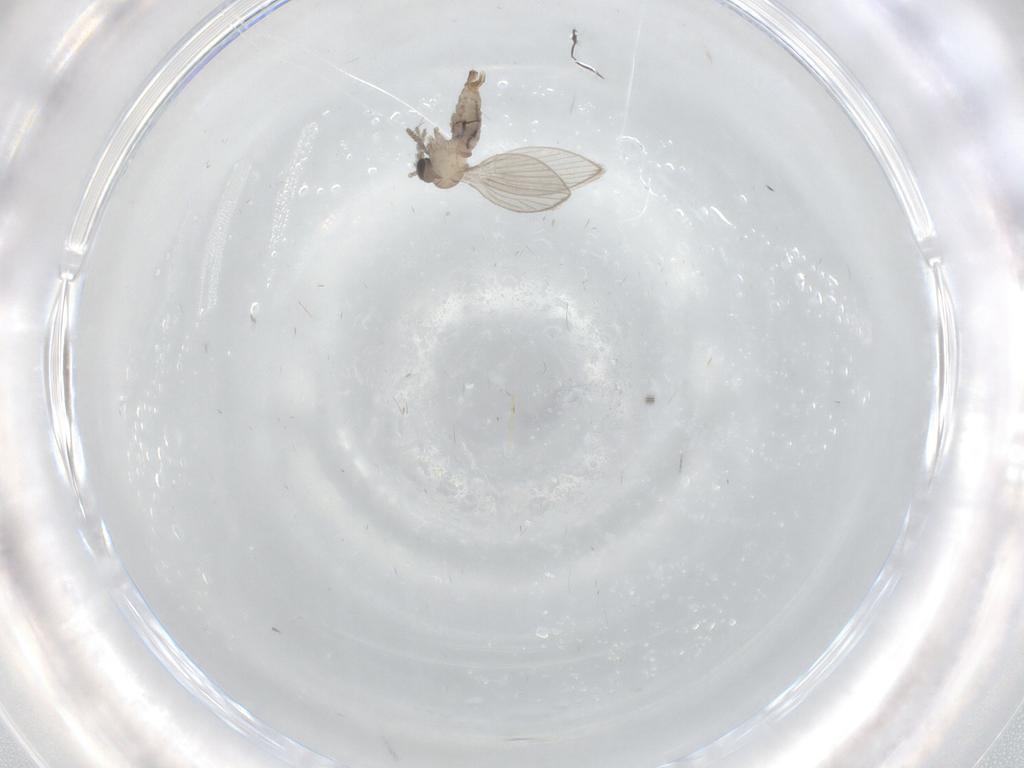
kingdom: Animalia
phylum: Arthropoda
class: Insecta
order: Diptera
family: Psychodidae
